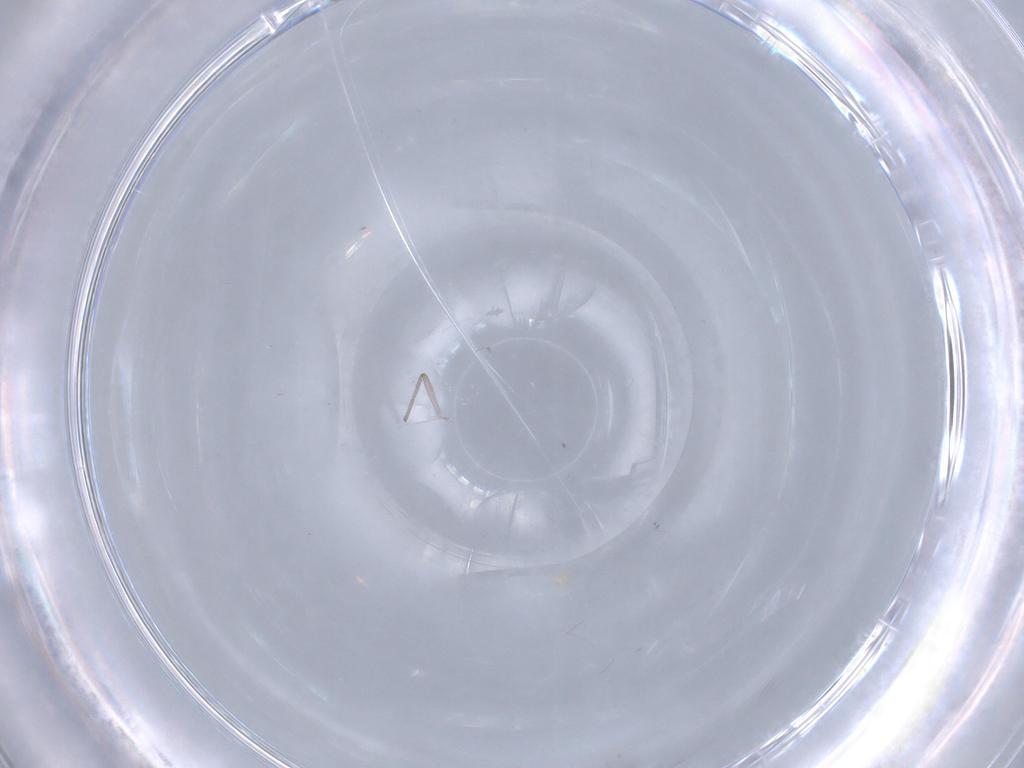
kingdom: Animalia
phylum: Arthropoda
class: Insecta
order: Diptera
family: Chironomidae
